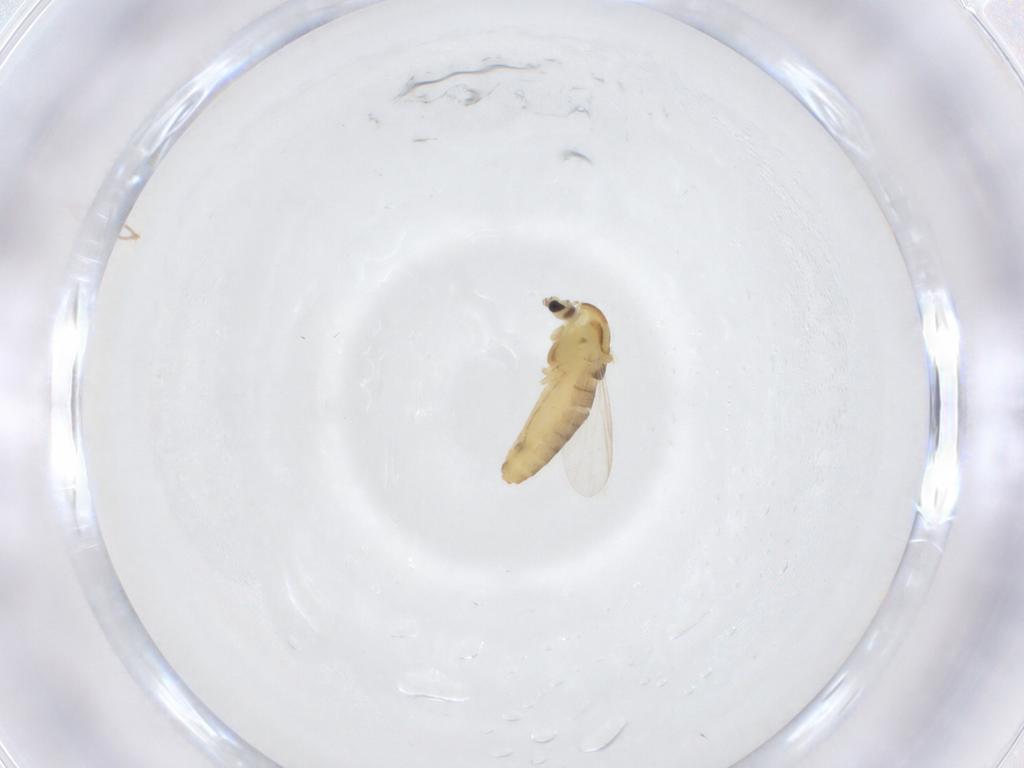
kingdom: Animalia
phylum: Arthropoda
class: Insecta
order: Diptera
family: Chironomidae
